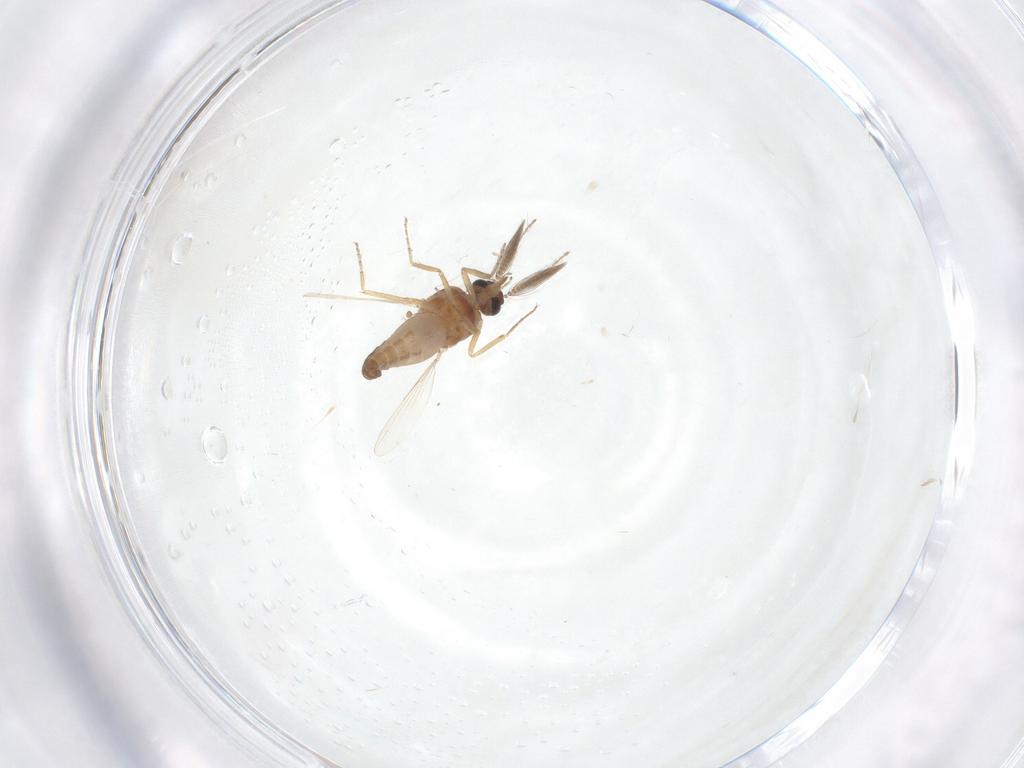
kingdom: Animalia
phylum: Arthropoda
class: Insecta
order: Diptera
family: Ceratopogonidae
